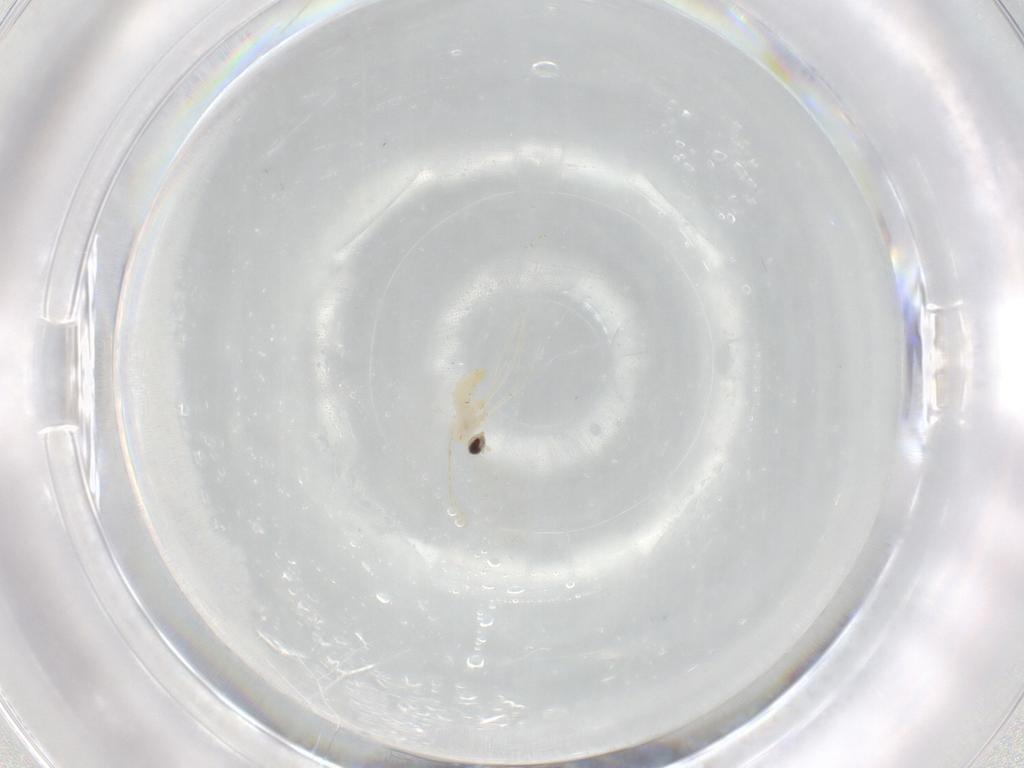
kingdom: Animalia
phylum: Arthropoda
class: Insecta
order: Diptera
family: Cecidomyiidae
